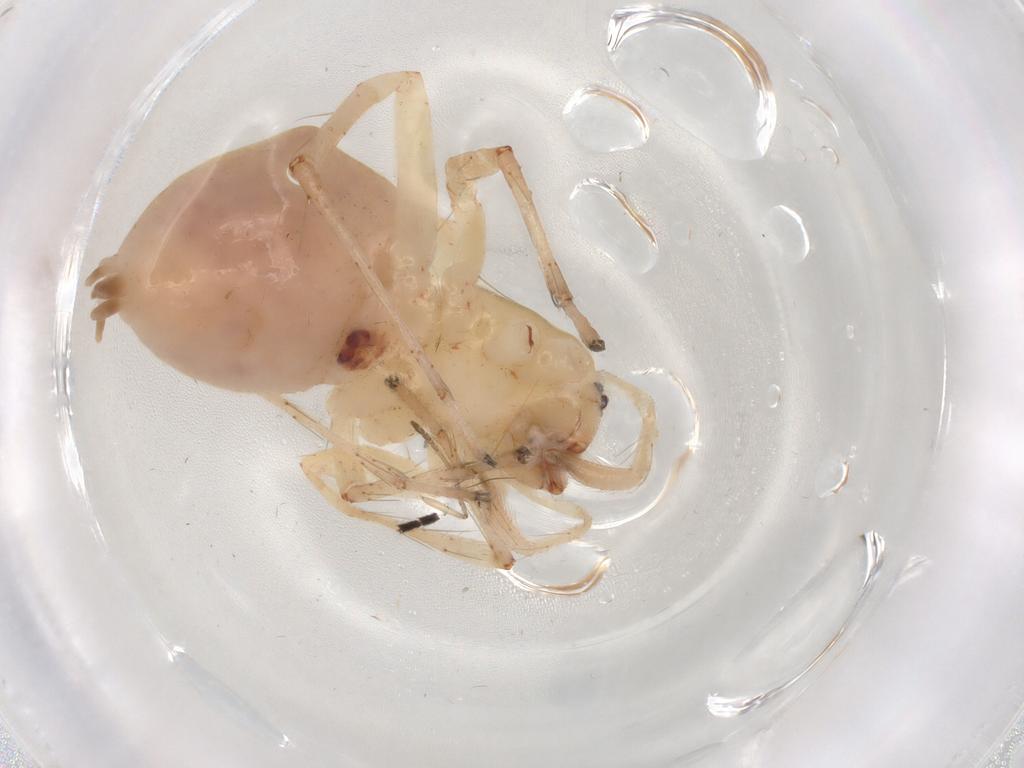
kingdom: Animalia
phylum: Arthropoda
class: Arachnida
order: Araneae
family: Anyphaenidae
